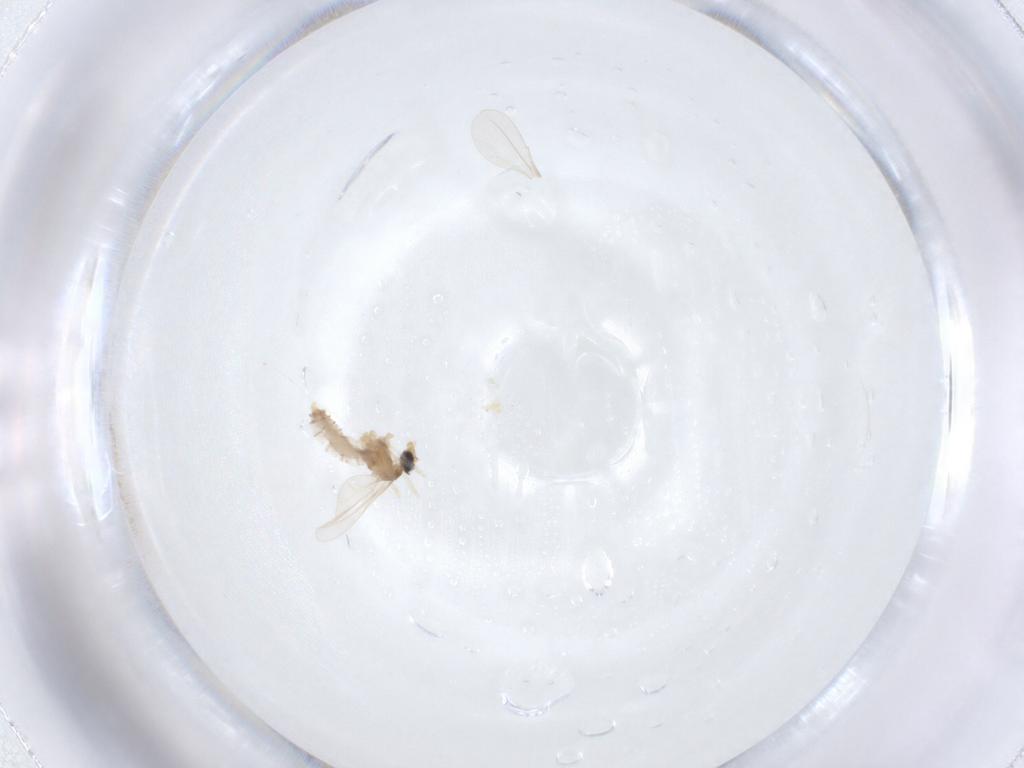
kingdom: Animalia
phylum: Arthropoda
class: Insecta
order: Diptera
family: Cecidomyiidae
